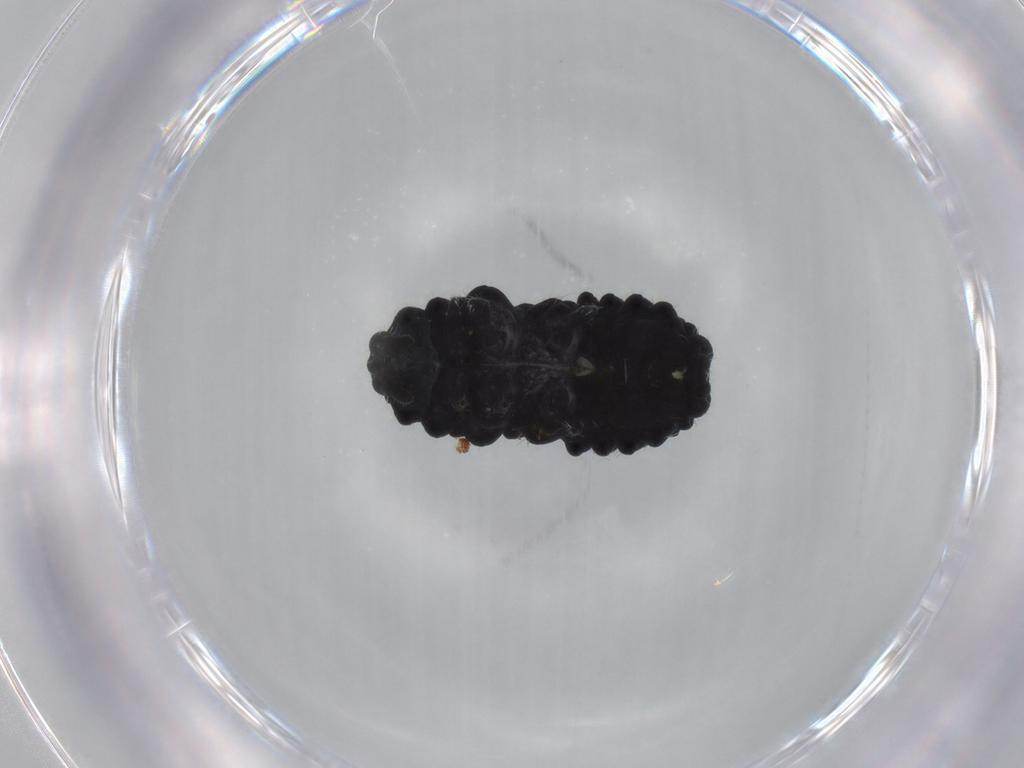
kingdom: Animalia
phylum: Arthropoda
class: Collembola
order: Poduromorpha
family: Neanuridae
